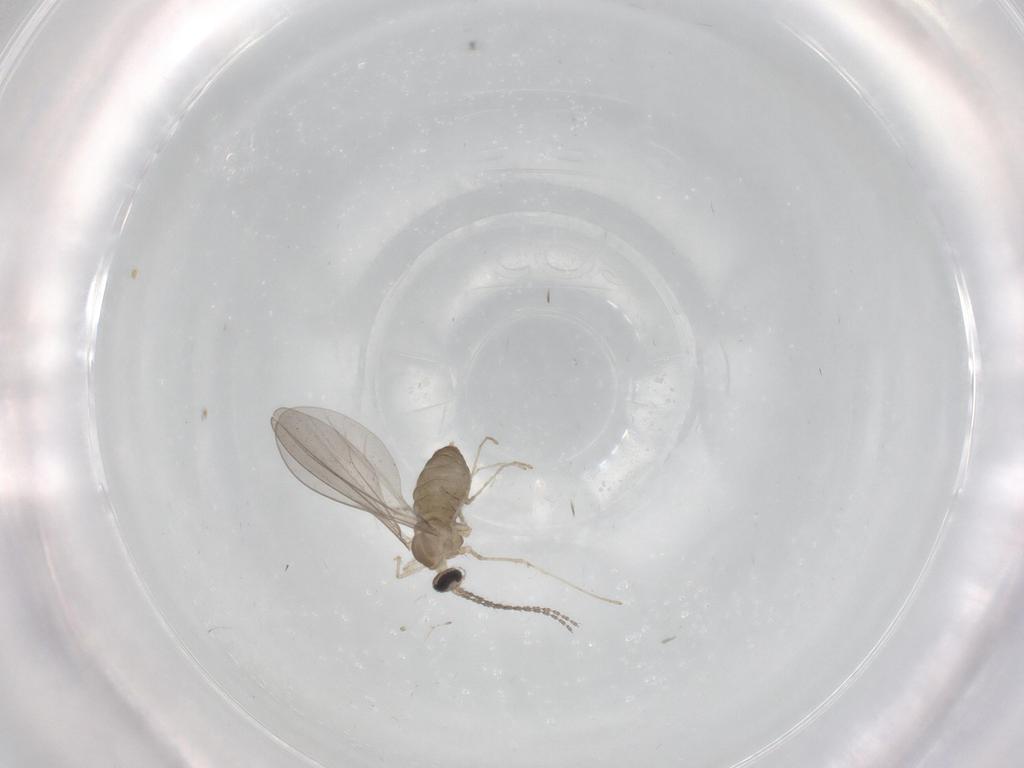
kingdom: Animalia
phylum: Arthropoda
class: Insecta
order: Diptera
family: Cecidomyiidae
